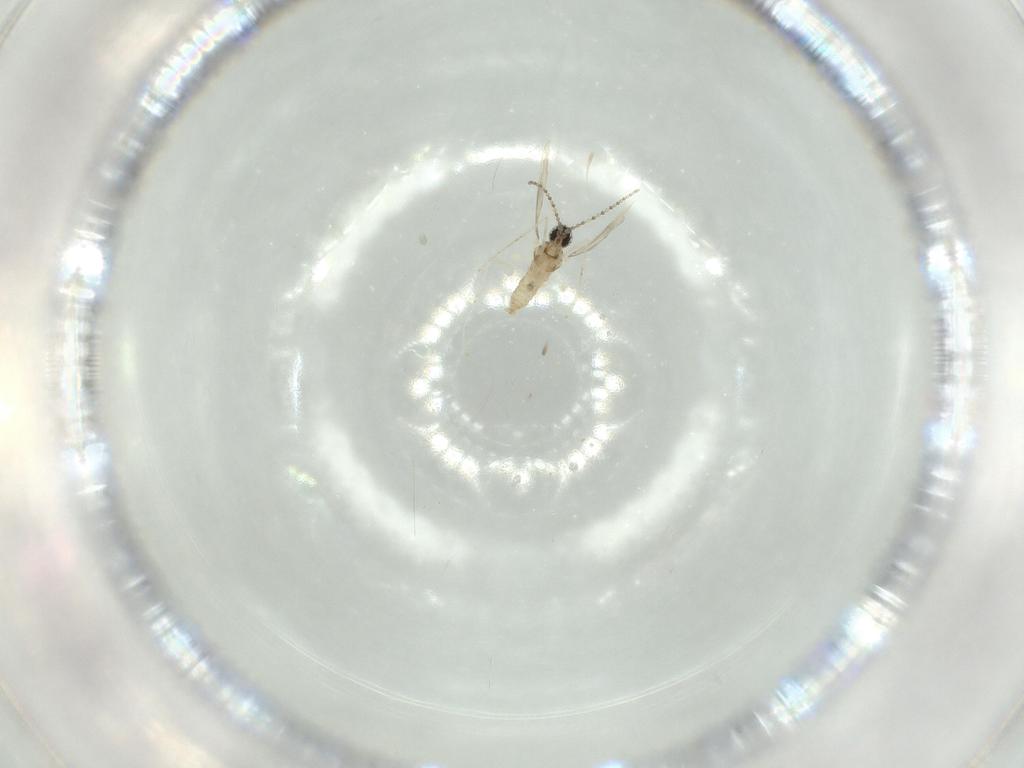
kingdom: Animalia
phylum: Arthropoda
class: Insecta
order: Diptera
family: Cecidomyiidae
